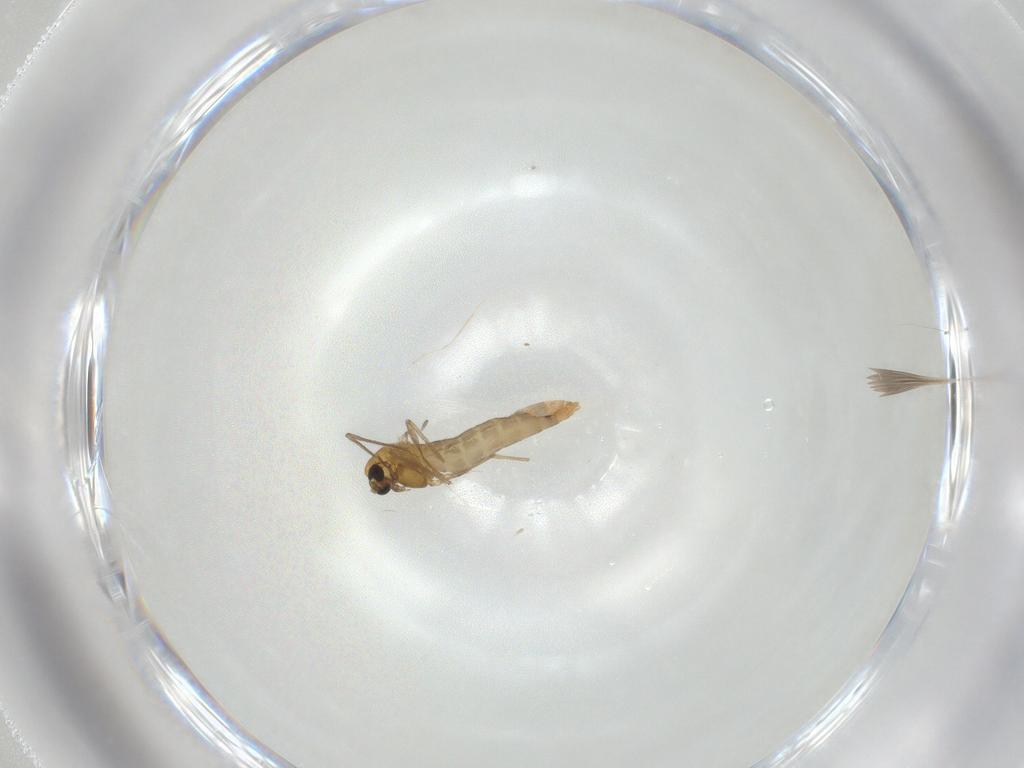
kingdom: Animalia
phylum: Arthropoda
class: Insecta
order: Diptera
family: Chironomidae
